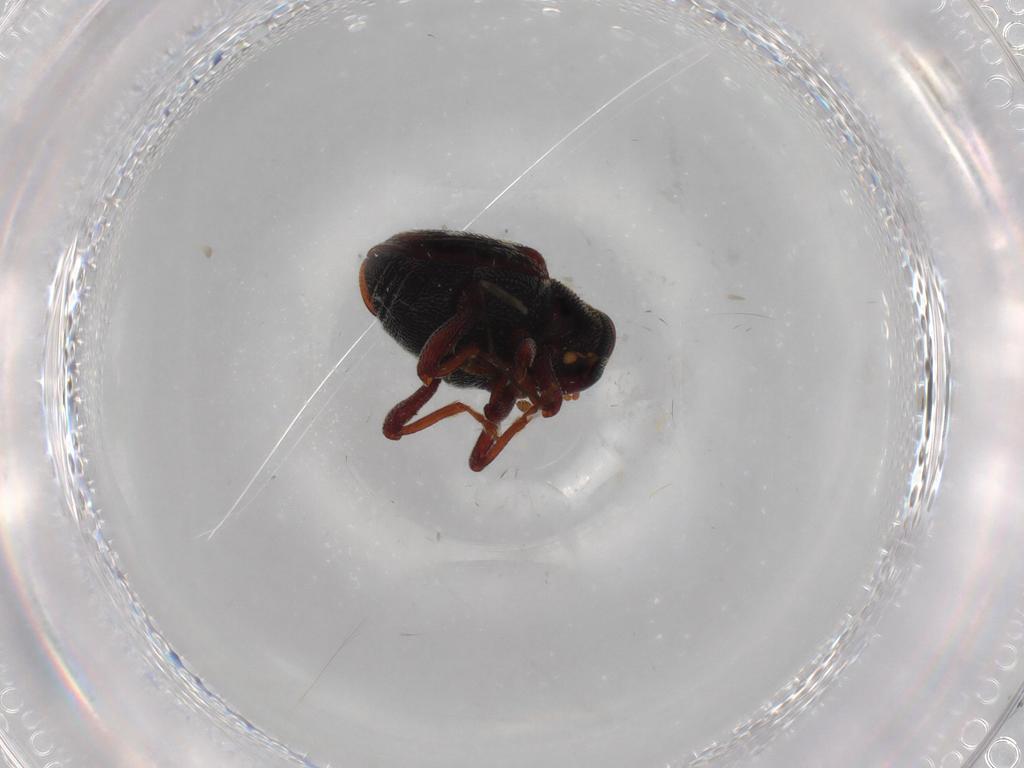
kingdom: Animalia
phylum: Arthropoda
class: Insecta
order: Coleoptera
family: Curculionidae
